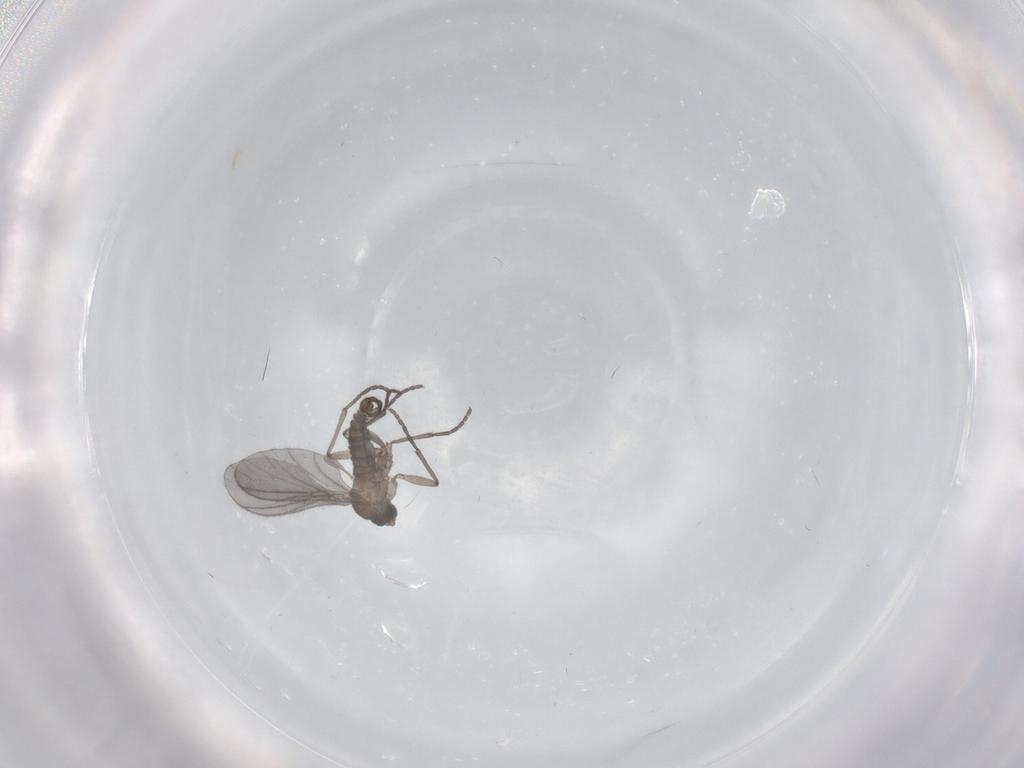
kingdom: Animalia
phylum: Arthropoda
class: Insecta
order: Diptera
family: Sciaridae
